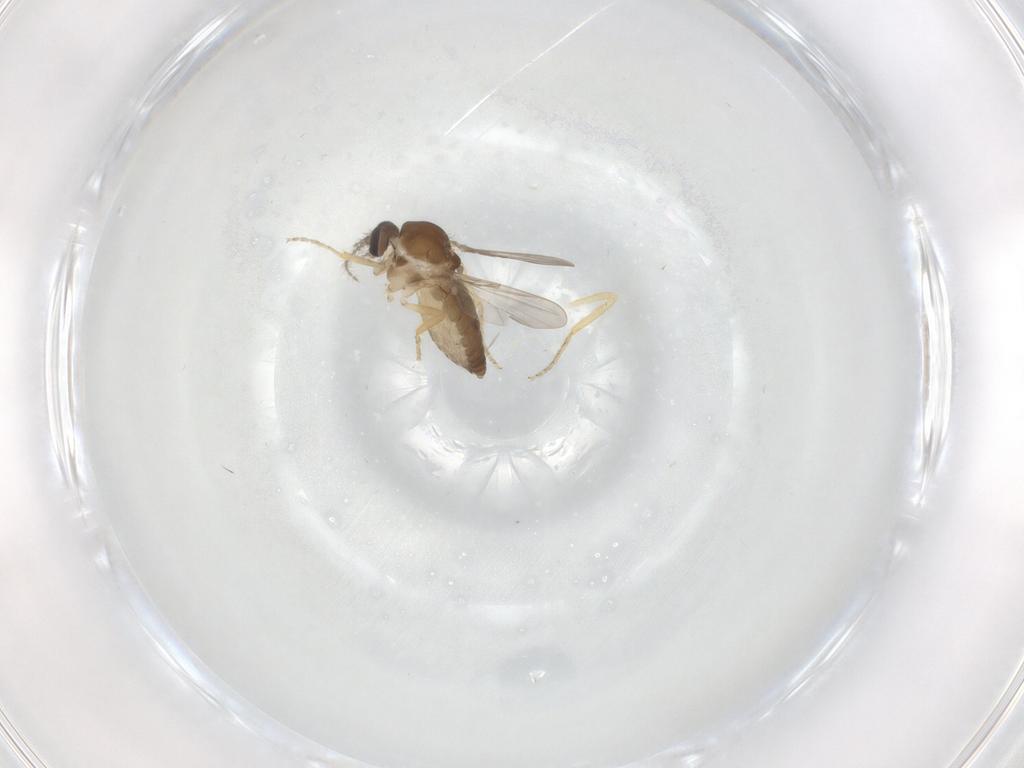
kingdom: Animalia
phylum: Arthropoda
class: Insecta
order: Diptera
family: Ceratopogonidae
